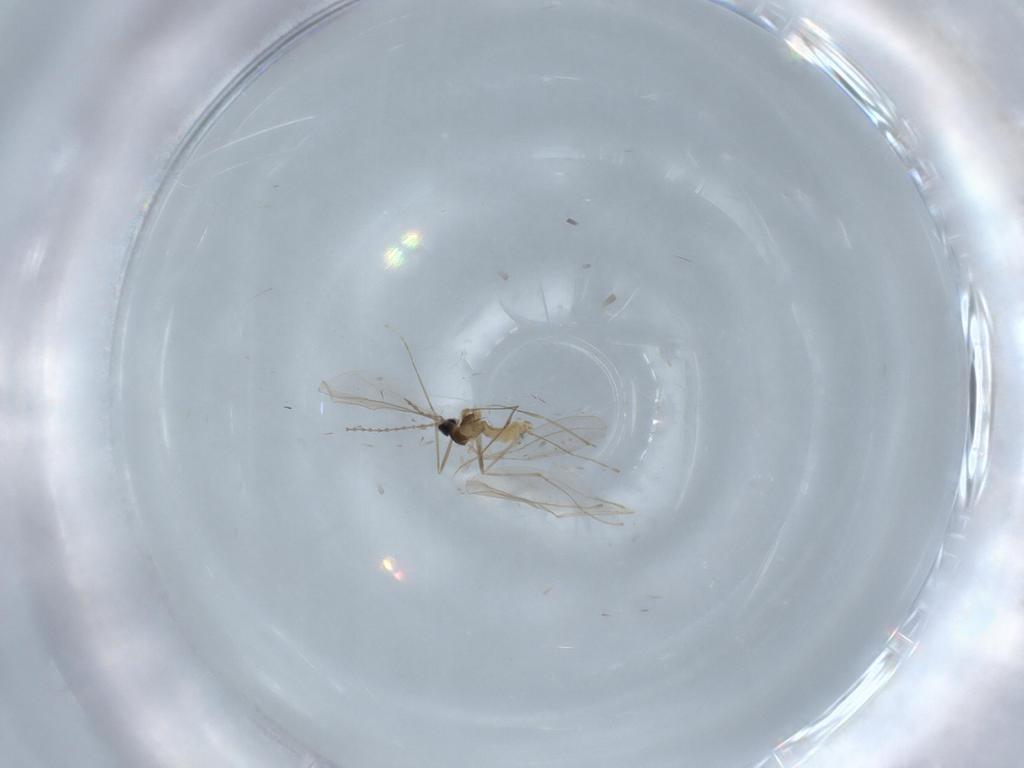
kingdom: Animalia
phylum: Arthropoda
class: Insecta
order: Diptera
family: Cecidomyiidae
